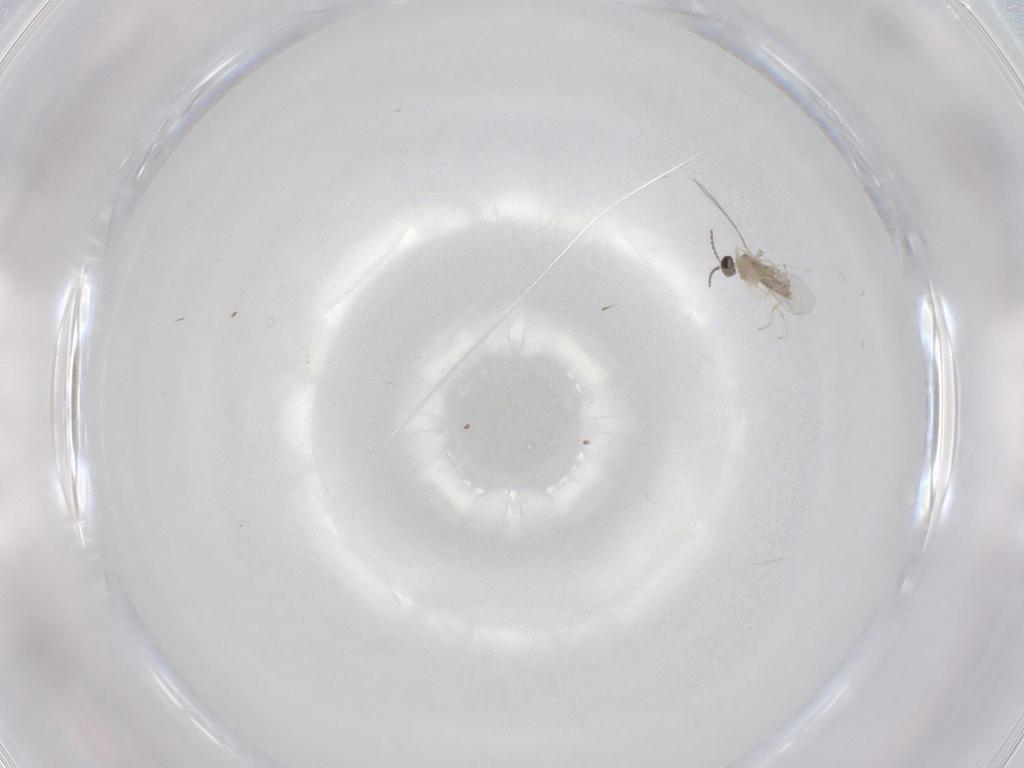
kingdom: Animalia
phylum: Arthropoda
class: Insecta
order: Diptera
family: Cecidomyiidae
